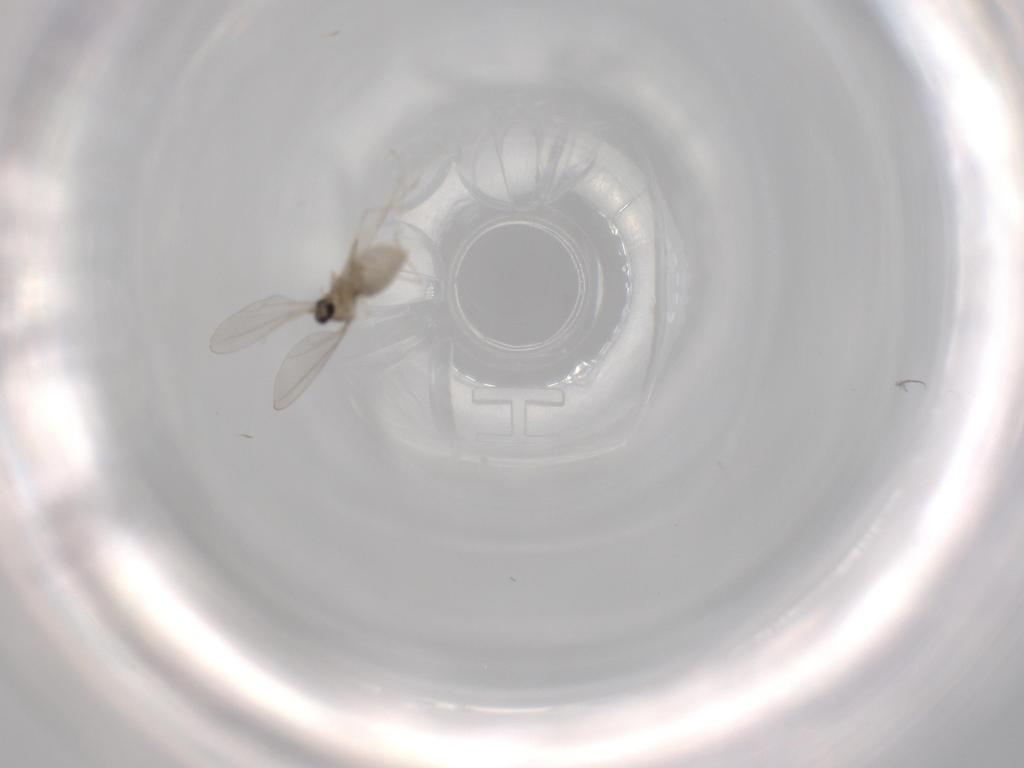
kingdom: Animalia
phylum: Arthropoda
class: Insecta
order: Diptera
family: Cecidomyiidae
